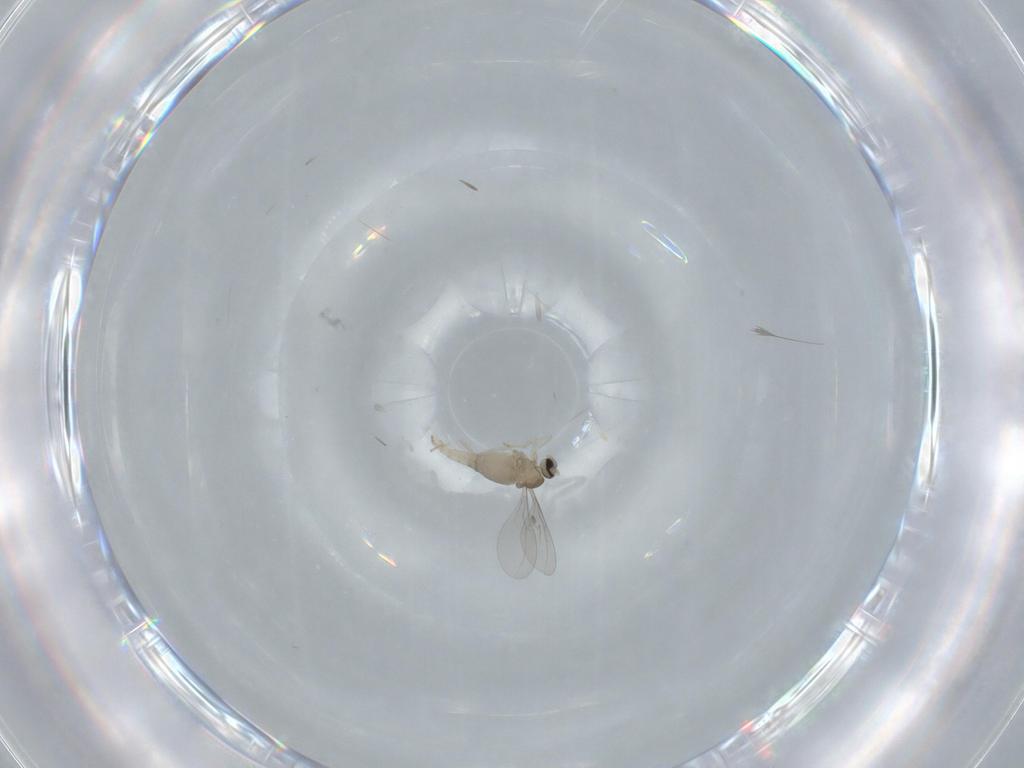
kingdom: Animalia
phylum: Arthropoda
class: Insecta
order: Diptera
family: Cecidomyiidae
